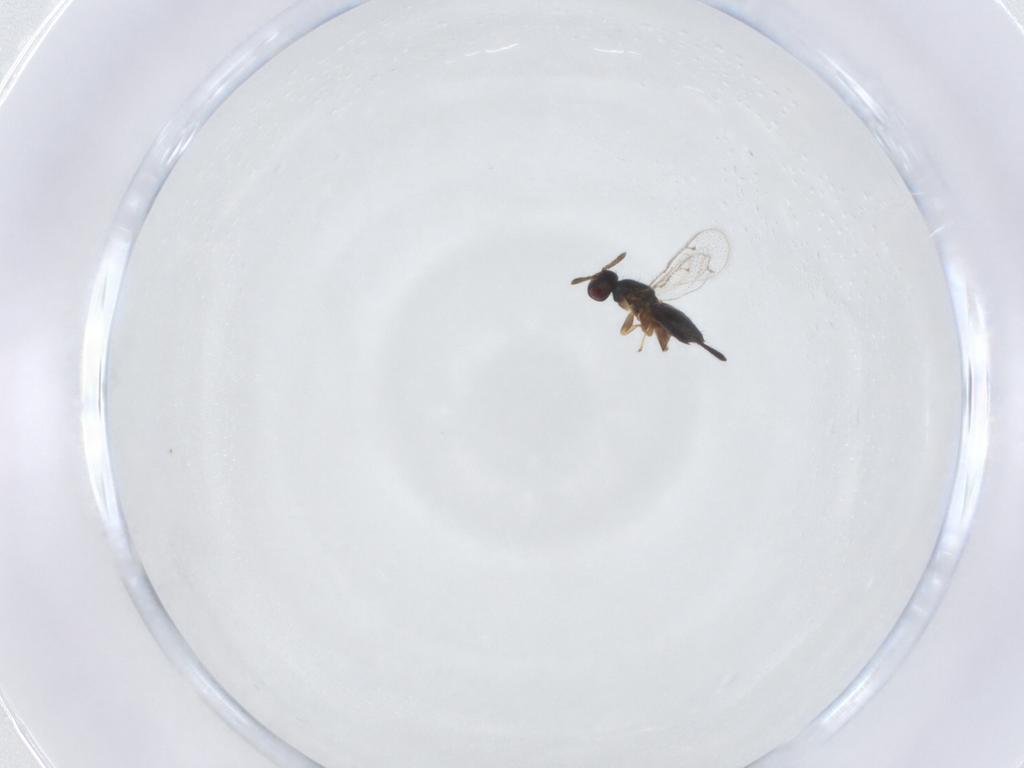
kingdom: Animalia
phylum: Arthropoda
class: Insecta
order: Hymenoptera
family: Torymidae
